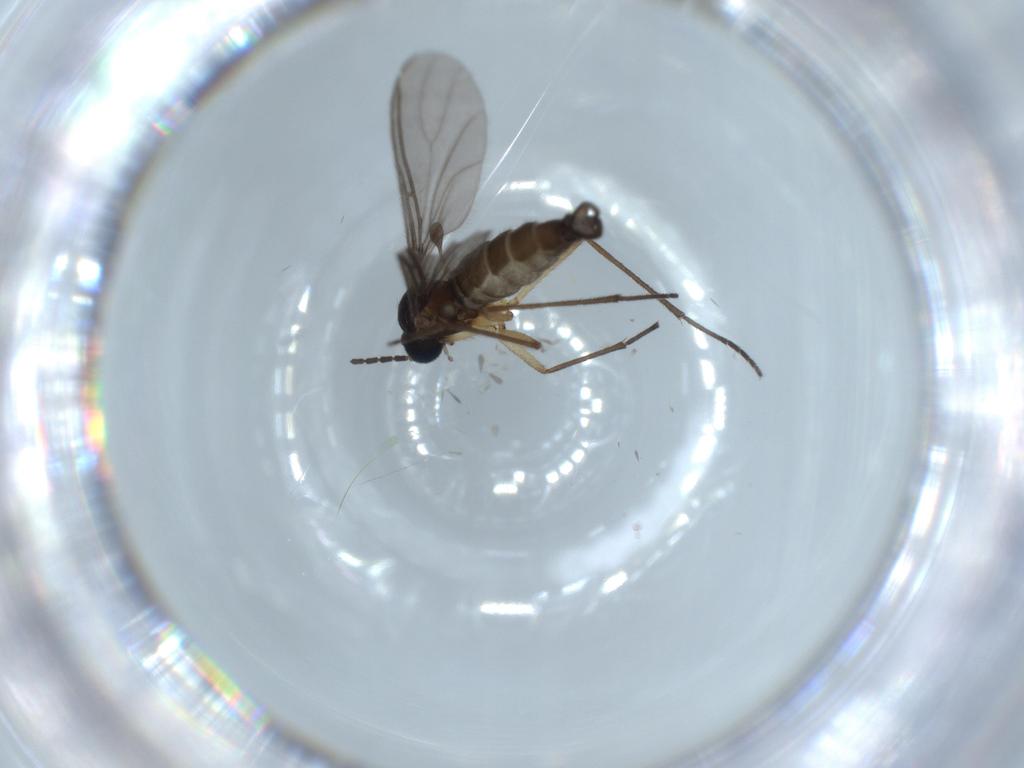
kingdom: Animalia
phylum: Arthropoda
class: Insecta
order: Diptera
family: Sciaridae
